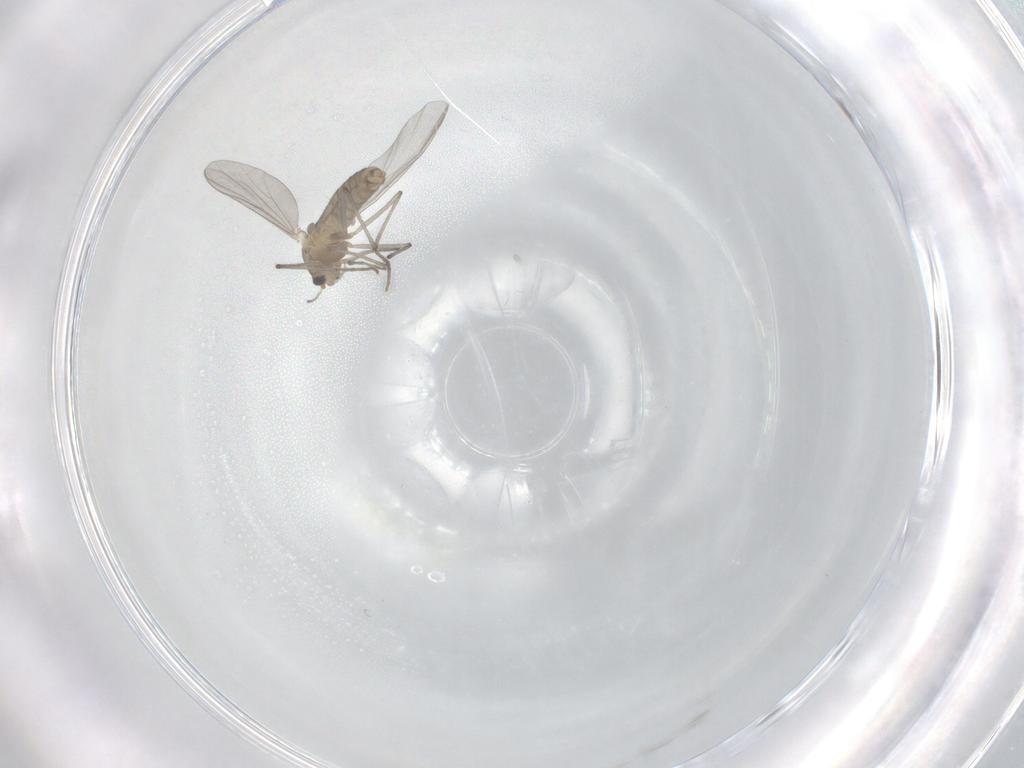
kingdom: Animalia
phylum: Arthropoda
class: Insecta
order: Diptera
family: Chironomidae
